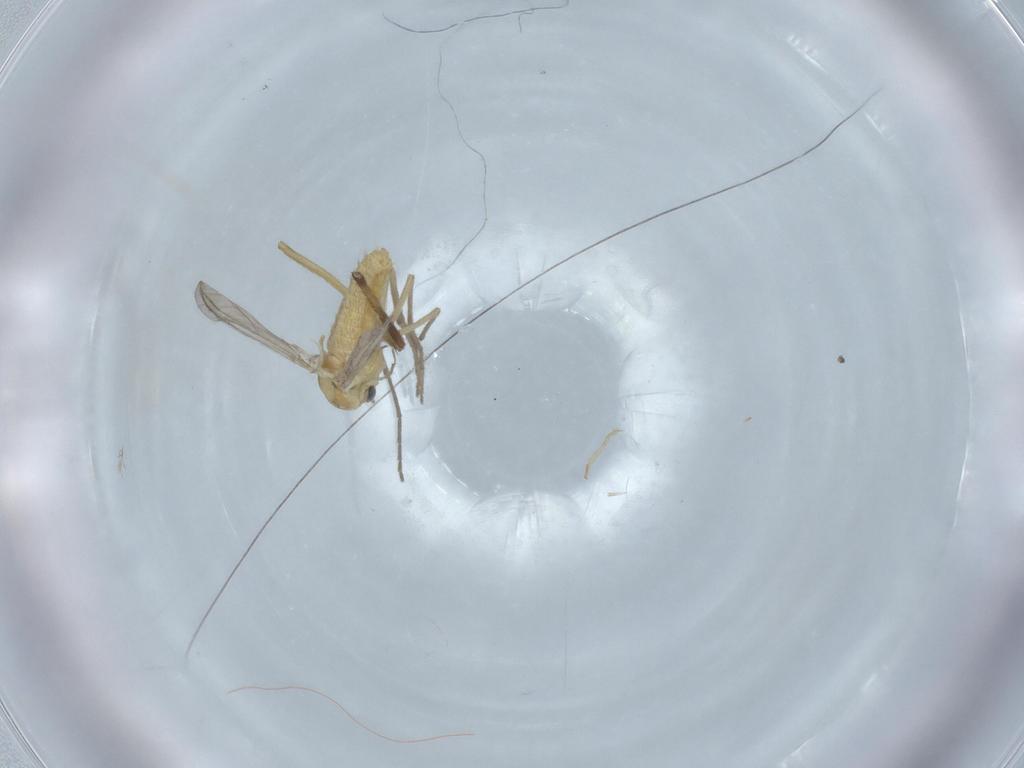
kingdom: Animalia
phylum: Arthropoda
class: Insecta
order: Diptera
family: Chironomidae
